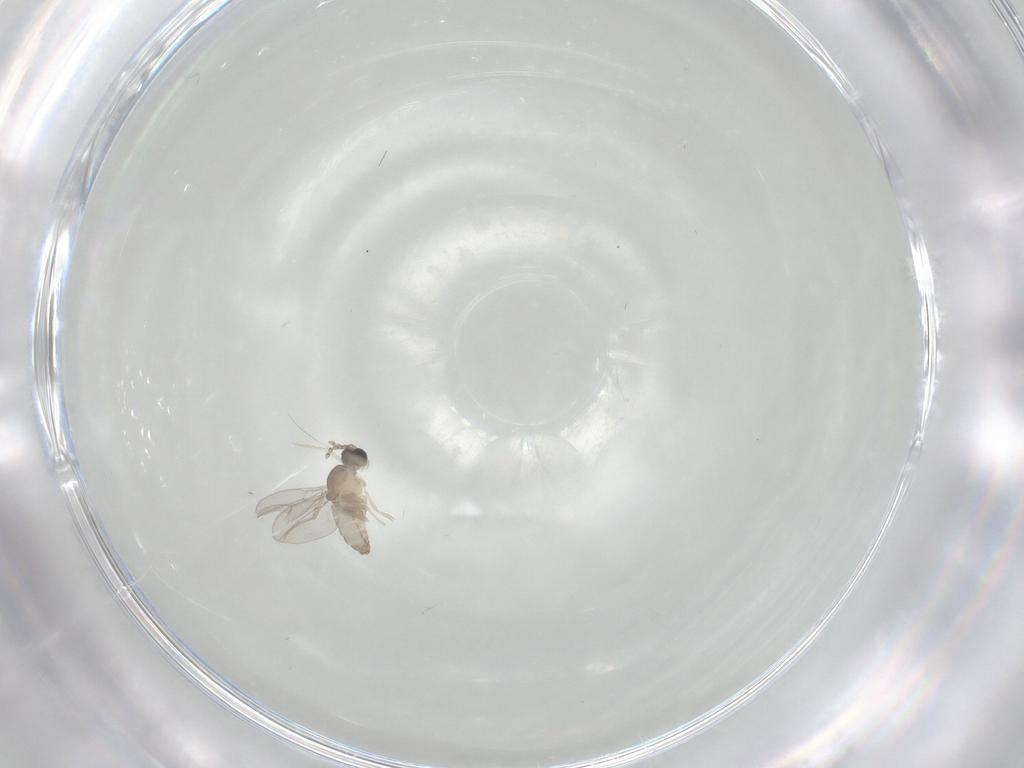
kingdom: Animalia
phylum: Arthropoda
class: Insecta
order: Diptera
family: Cecidomyiidae
